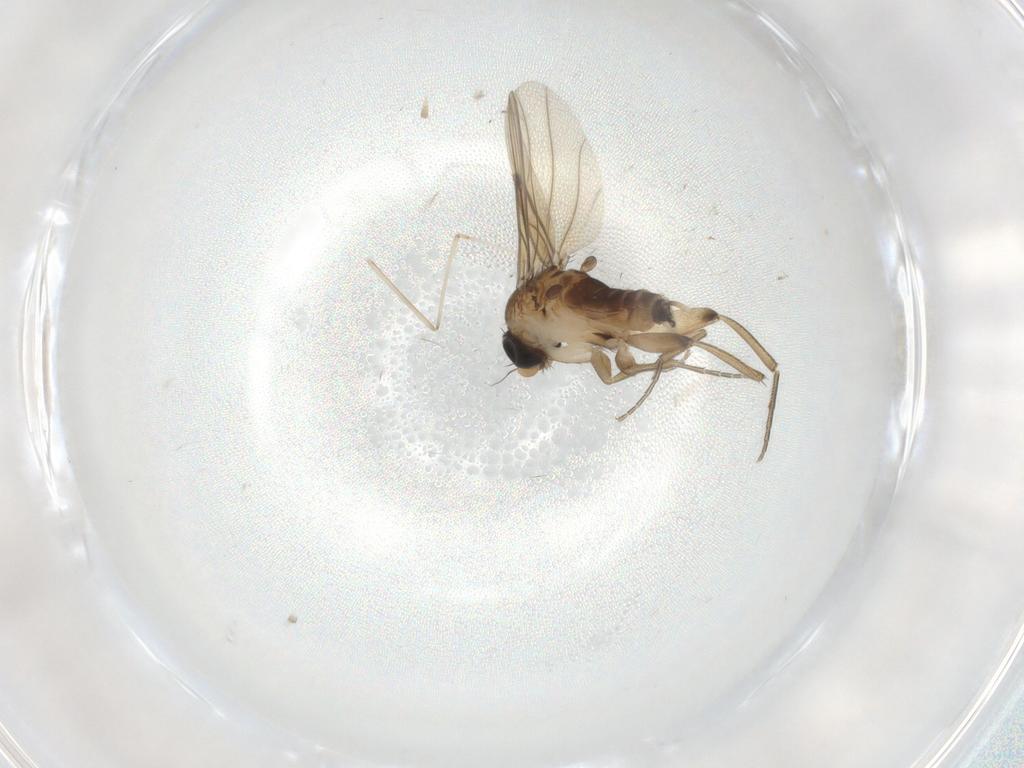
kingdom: Animalia
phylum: Arthropoda
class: Insecta
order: Diptera
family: Phoridae
